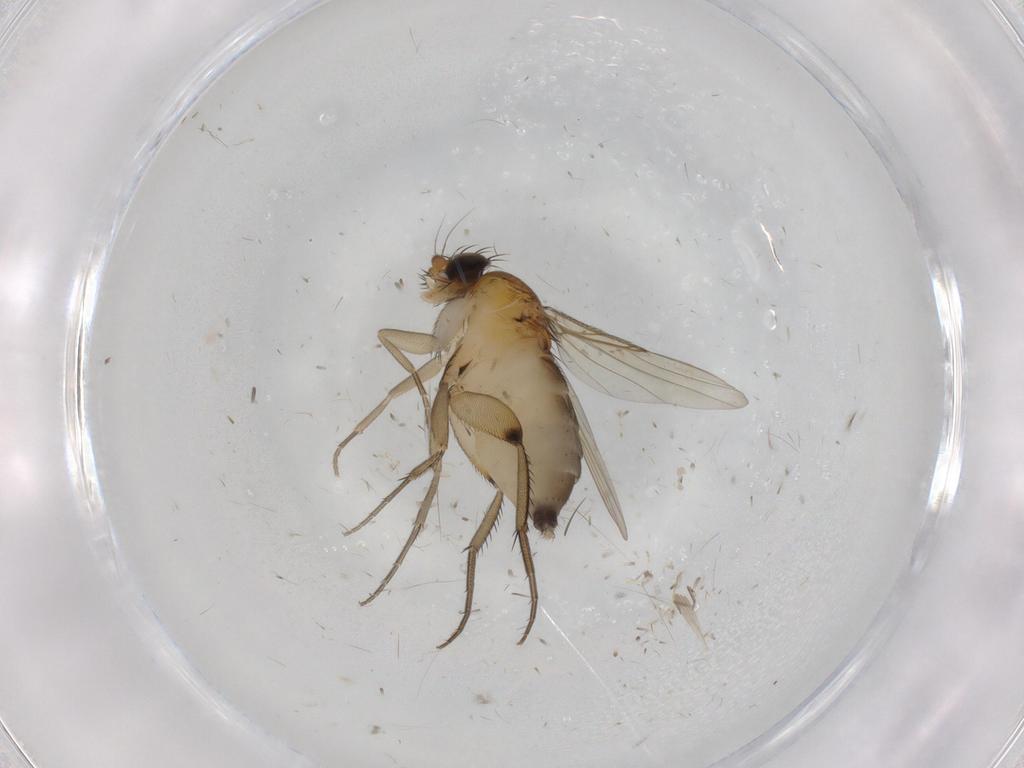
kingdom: Animalia
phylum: Arthropoda
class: Insecta
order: Diptera
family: Phoridae
